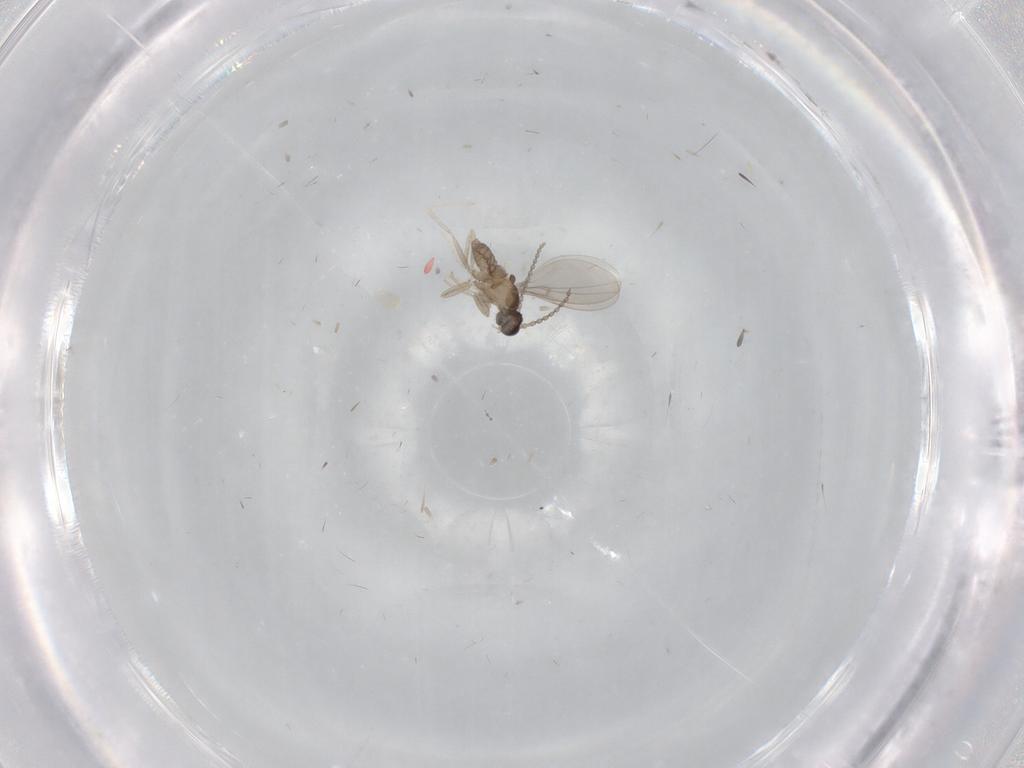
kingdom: Animalia
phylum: Arthropoda
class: Insecta
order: Diptera
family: Cecidomyiidae
